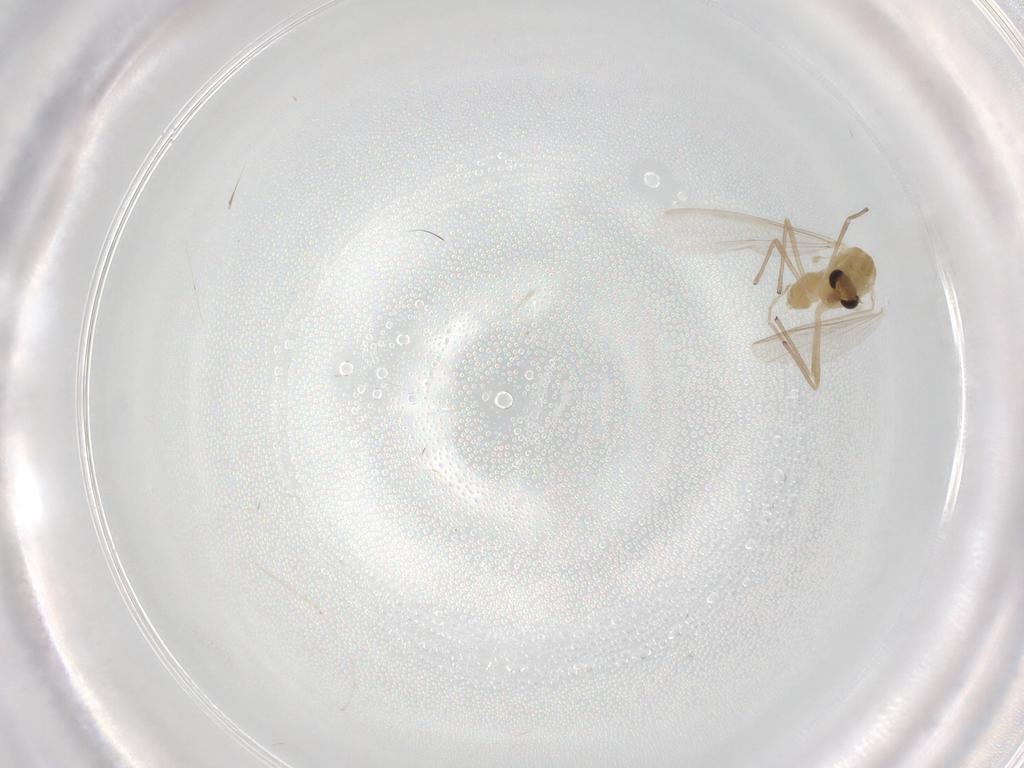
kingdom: Animalia
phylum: Arthropoda
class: Insecta
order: Diptera
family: Chironomidae
